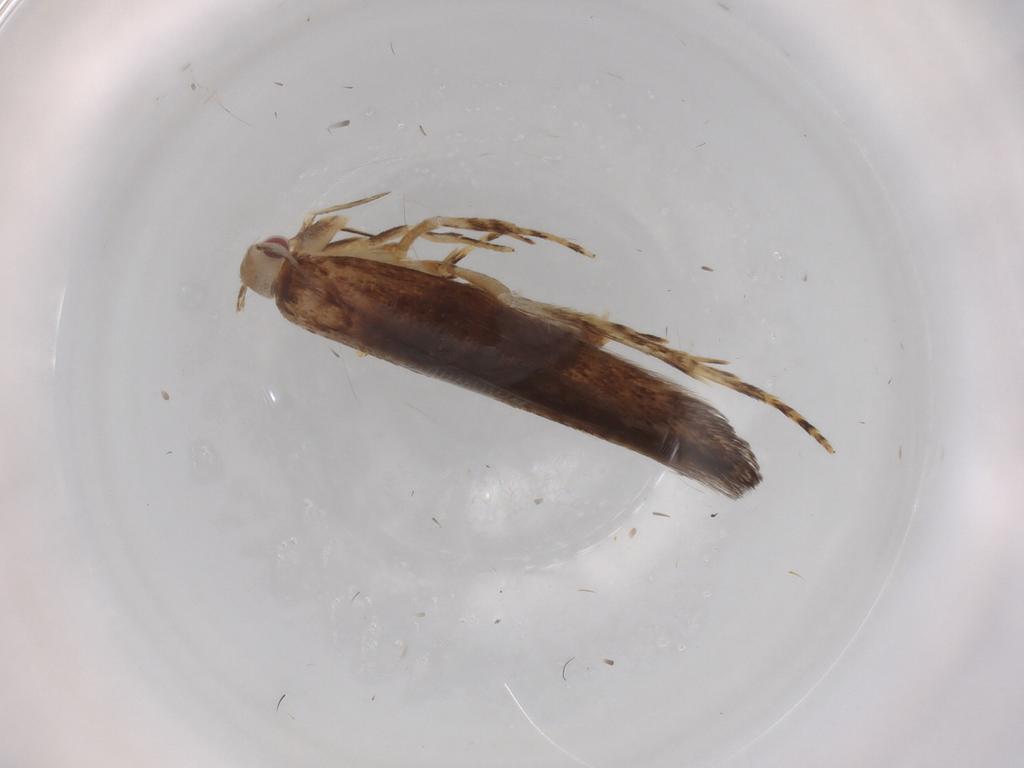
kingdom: Animalia
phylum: Arthropoda
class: Insecta
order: Lepidoptera
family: Cosmopterigidae
